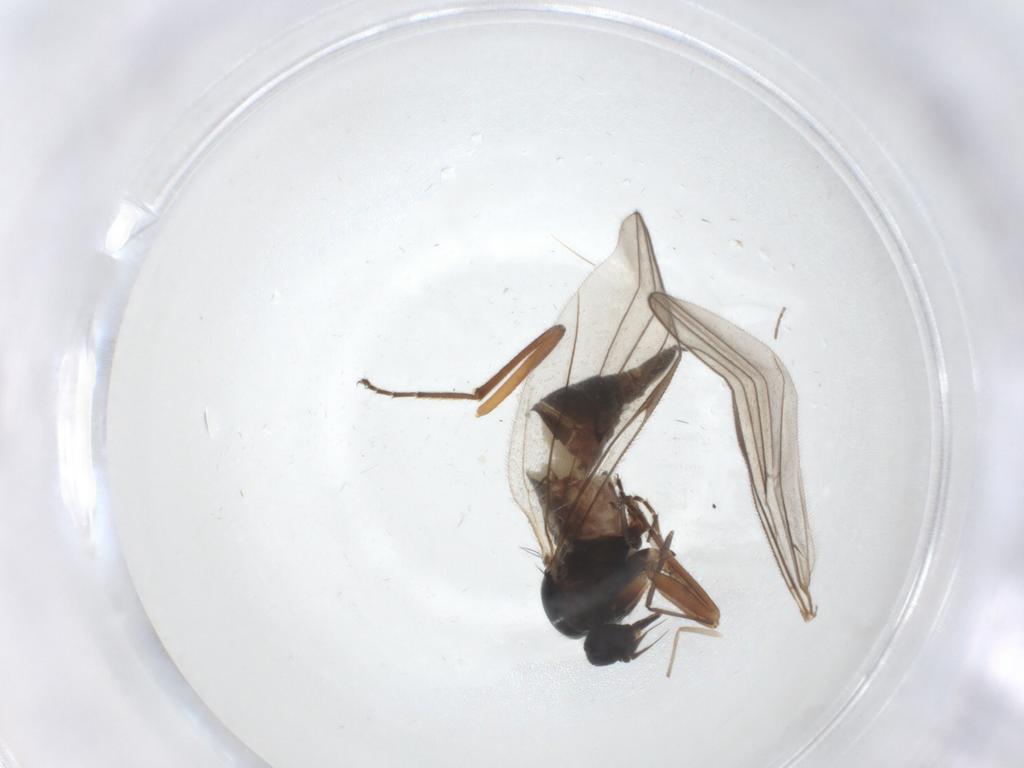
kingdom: Animalia
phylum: Arthropoda
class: Insecta
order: Diptera
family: Hybotidae
